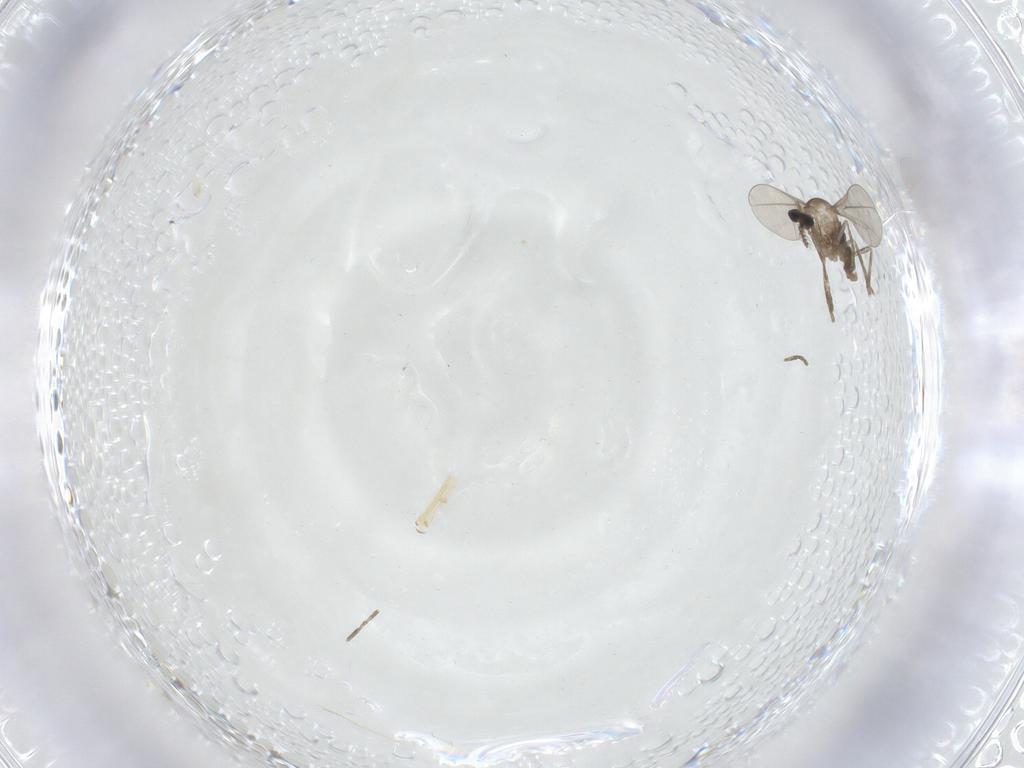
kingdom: Animalia
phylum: Arthropoda
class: Insecta
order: Diptera
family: Cecidomyiidae
